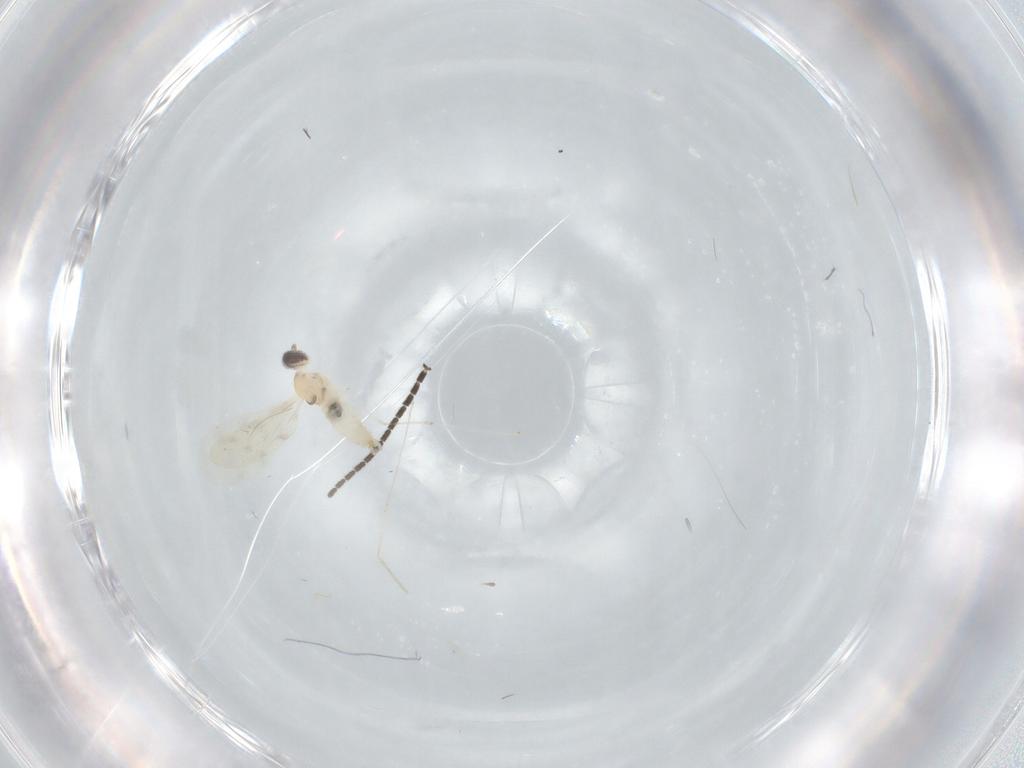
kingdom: Animalia
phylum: Arthropoda
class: Insecta
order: Diptera
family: Cecidomyiidae
